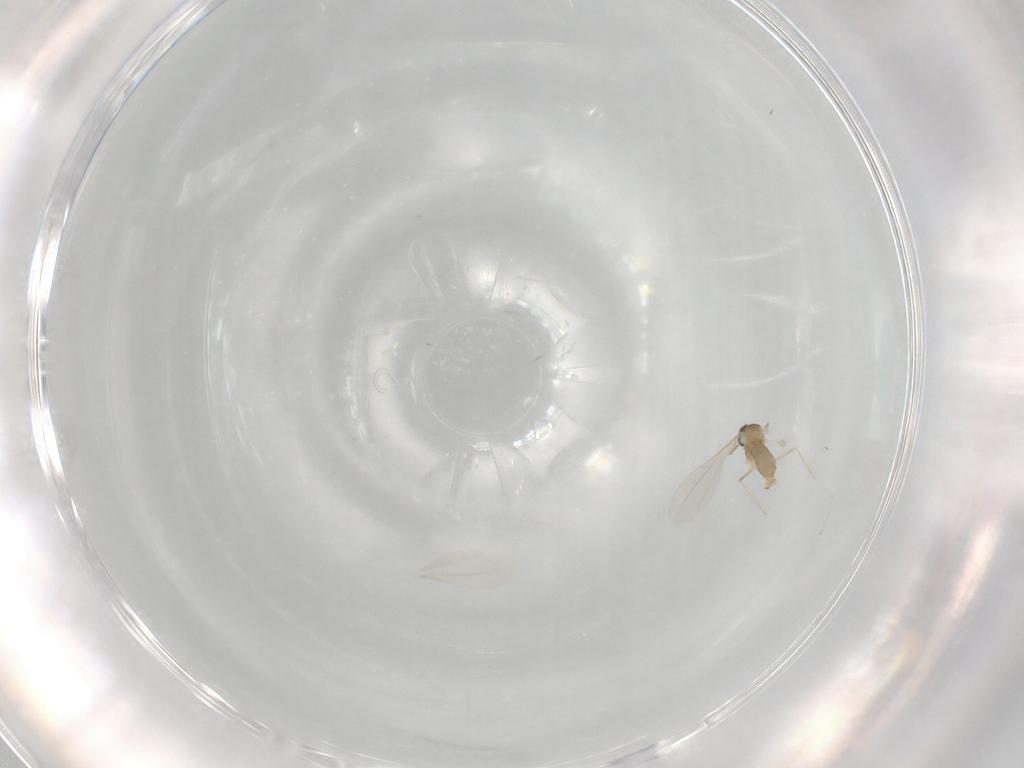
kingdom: Animalia
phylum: Arthropoda
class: Insecta
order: Diptera
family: Cecidomyiidae
